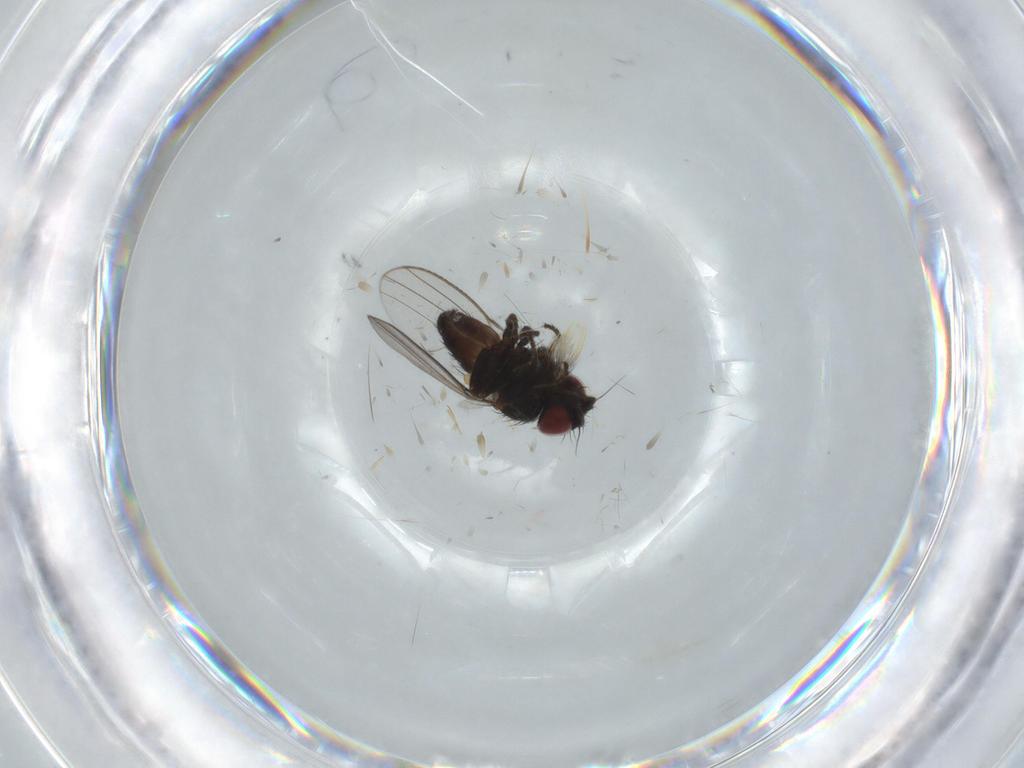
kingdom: Animalia
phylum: Arthropoda
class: Insecta
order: Diptera
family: Milichiidae
